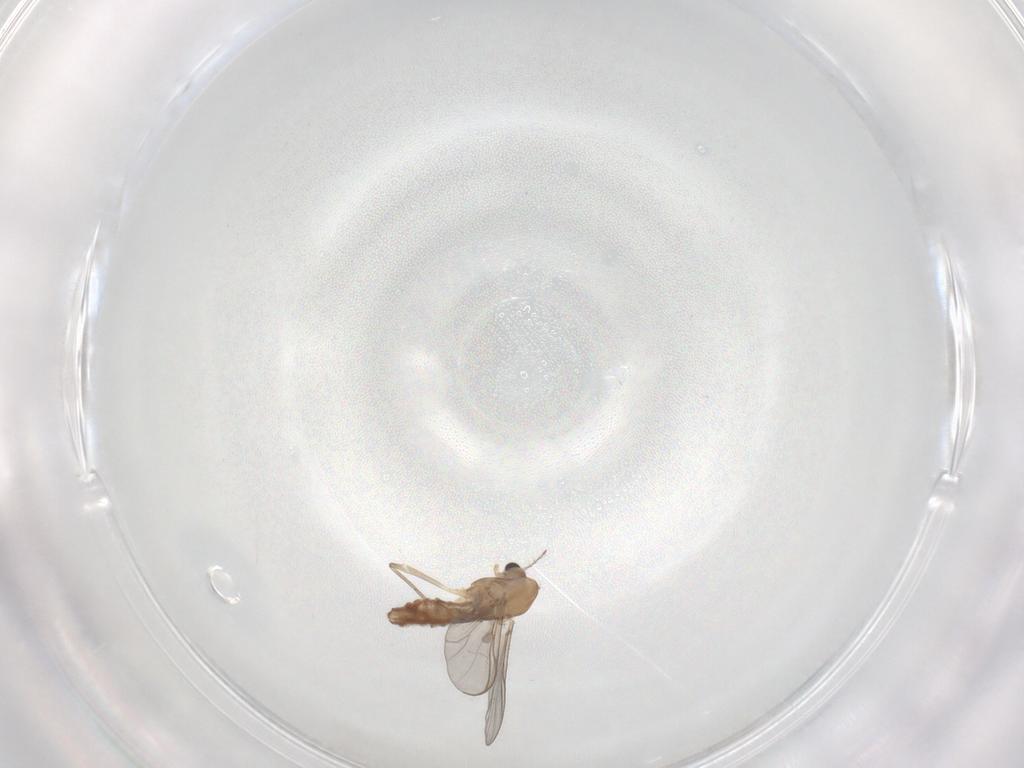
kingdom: Animalia
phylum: Arthropoda
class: Insecta
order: Diptera
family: Chironomidae
